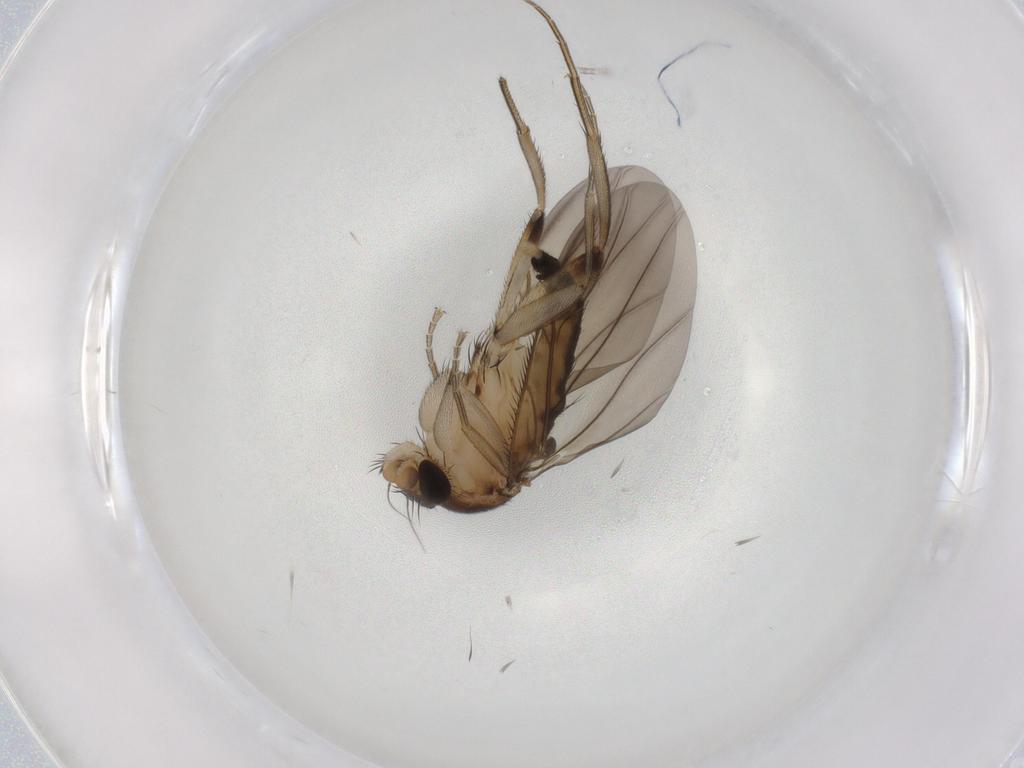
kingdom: Animalia
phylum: Arthropoda
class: Insecta
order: Diptera
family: Phoridae
